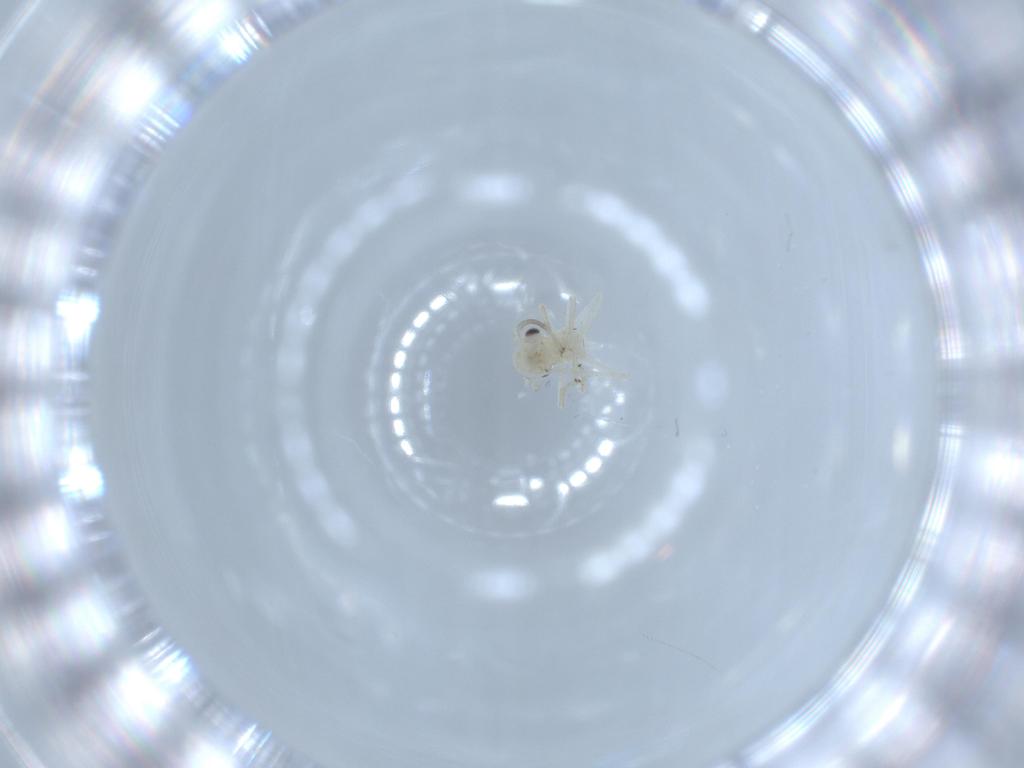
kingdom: Animalia
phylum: Arthropoda
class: Insecta
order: Psocodea
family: Caeciliusidae
